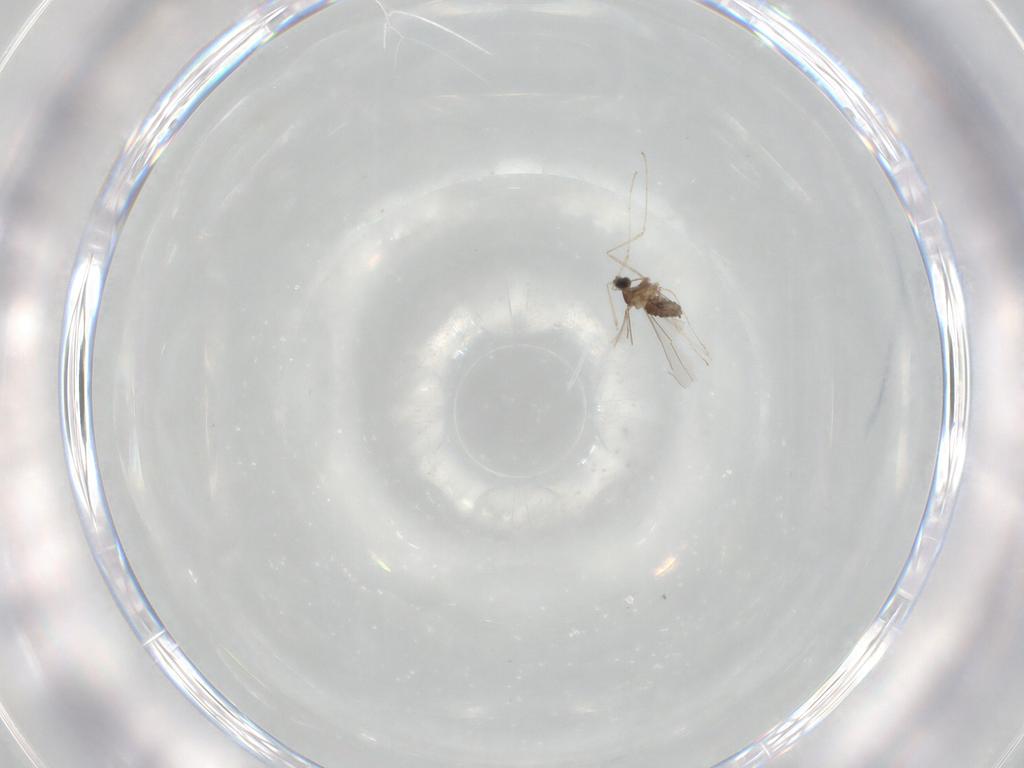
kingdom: Animalia
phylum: Arthropoda
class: Insecta
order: Diptera
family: Cecidomyiidae
